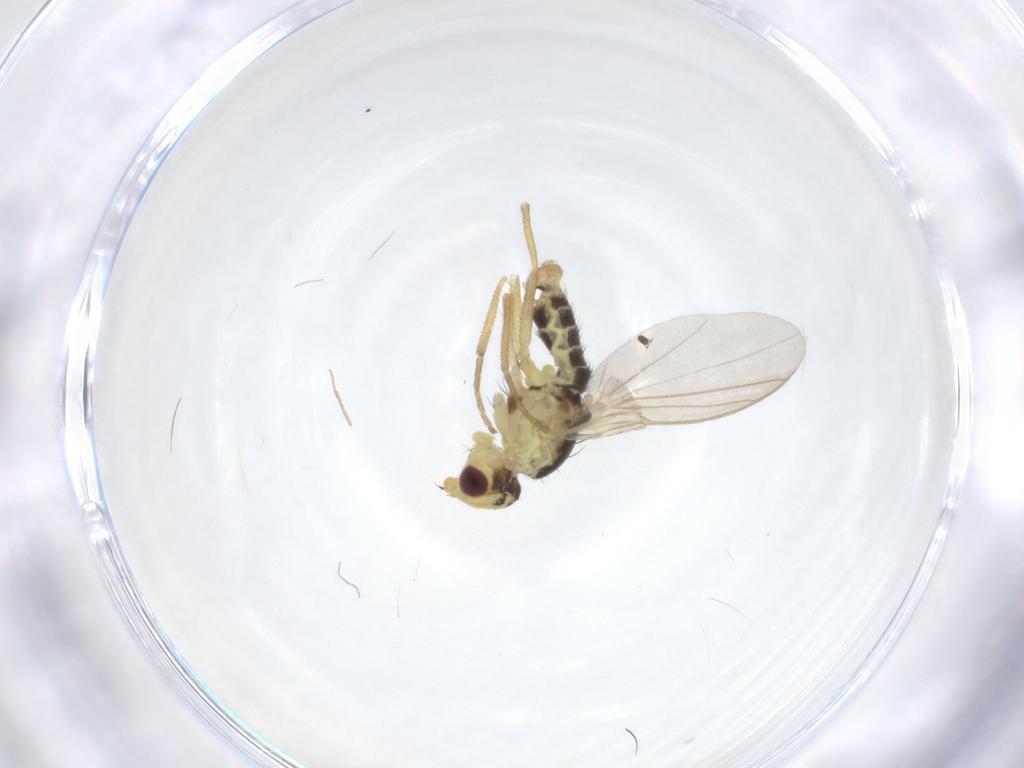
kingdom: Animalia
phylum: Arthropoda
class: Insecta
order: Diptera
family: Agromyzidae
